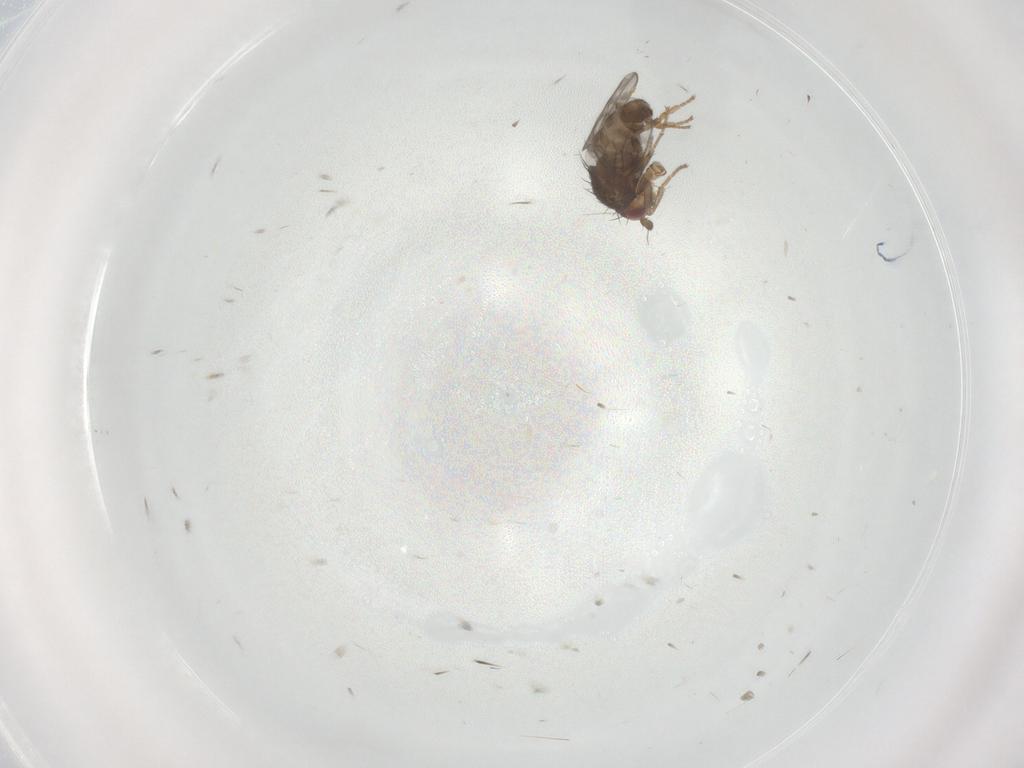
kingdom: Animalia
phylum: Arthropoda
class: Insecta
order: Diptera
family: Sphaeroceridae
